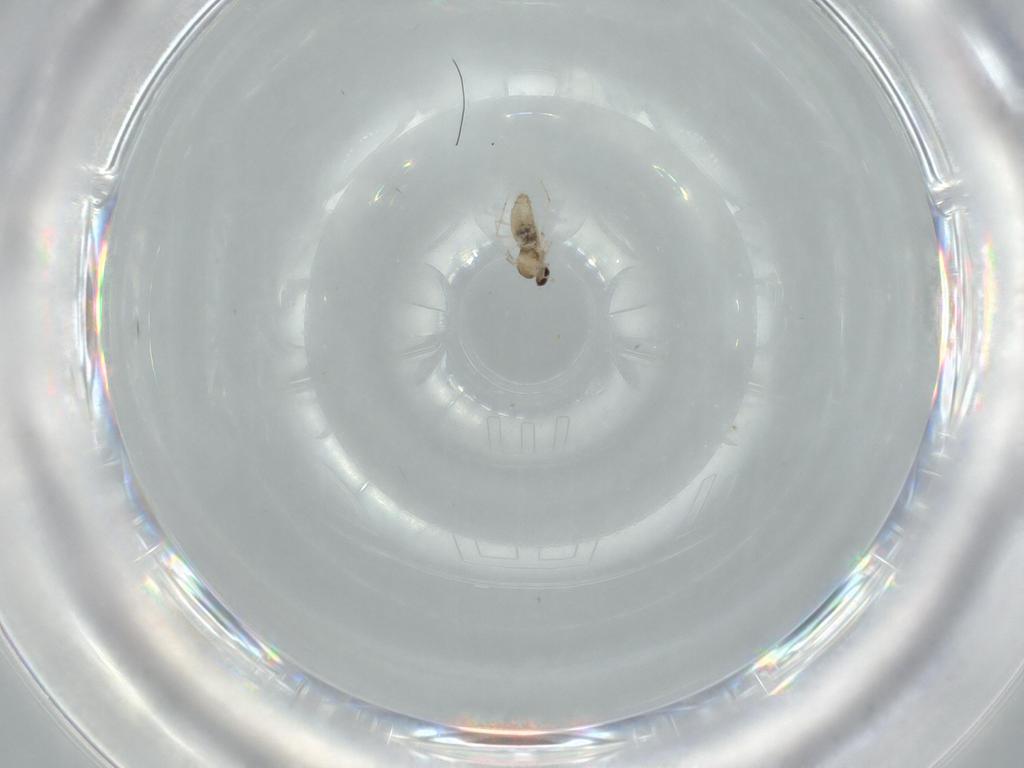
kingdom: Animalia
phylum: Arthropoda
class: Insecta
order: Diptera
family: Cecidomyiidae
